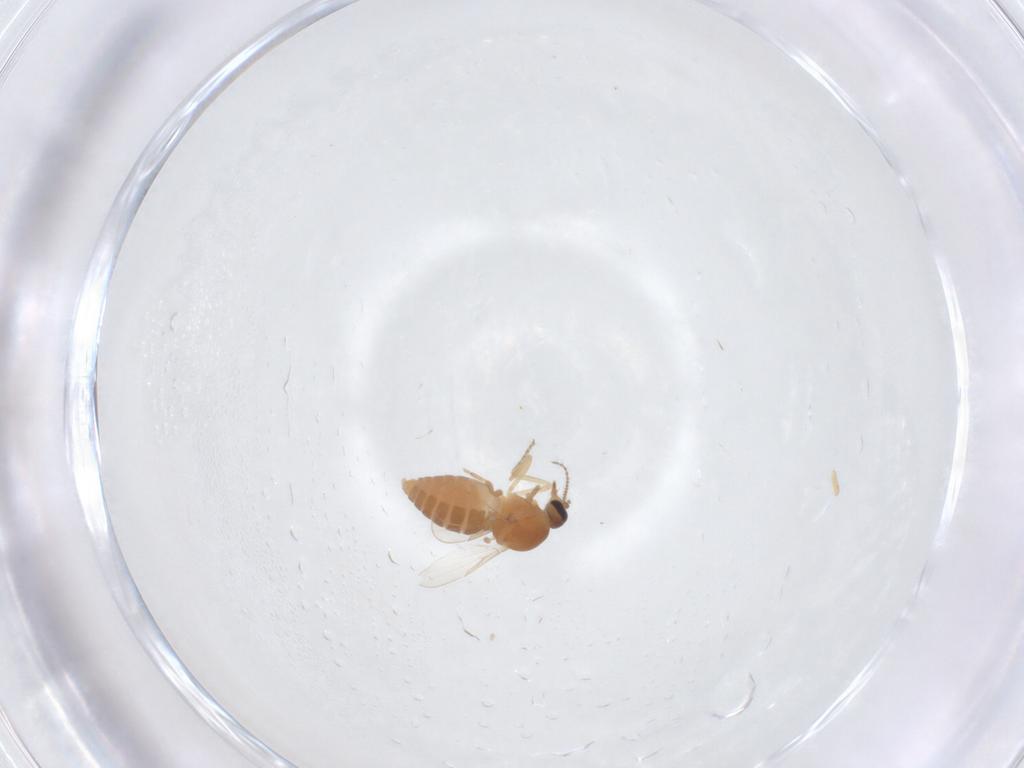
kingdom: Animalia
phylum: Arthropoda
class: Insecta
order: Diptera
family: Ceratopogonidae
